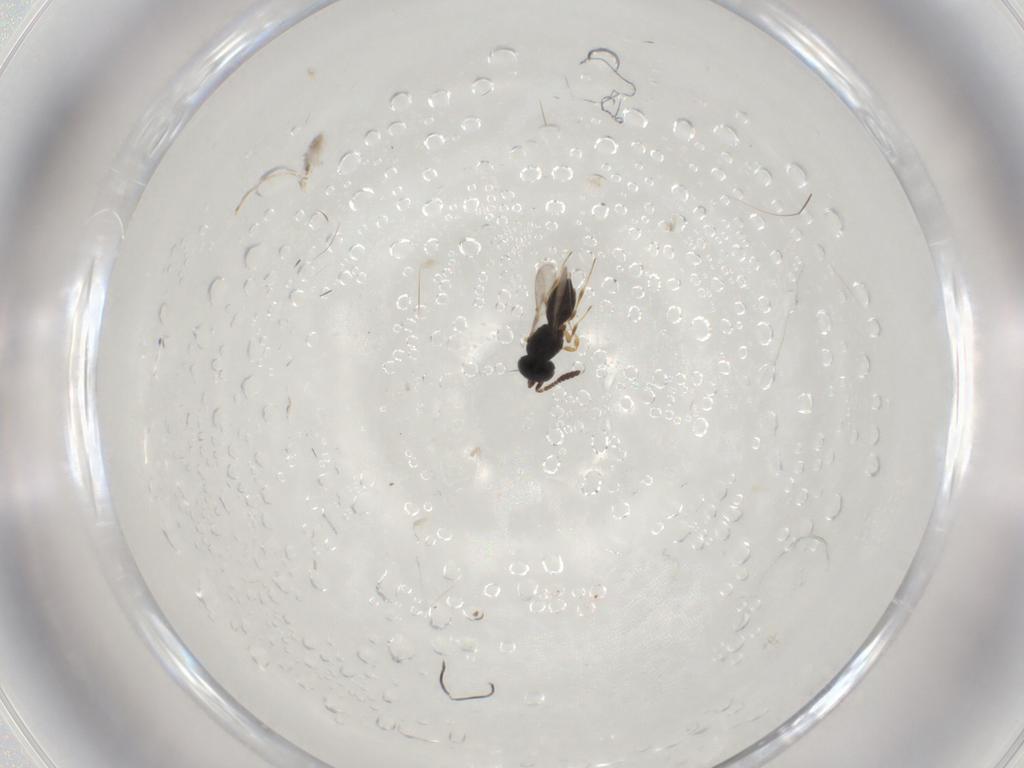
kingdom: Animalia
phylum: Arthropoda
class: Insecta
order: Hymenoptera
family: Scelionidae
